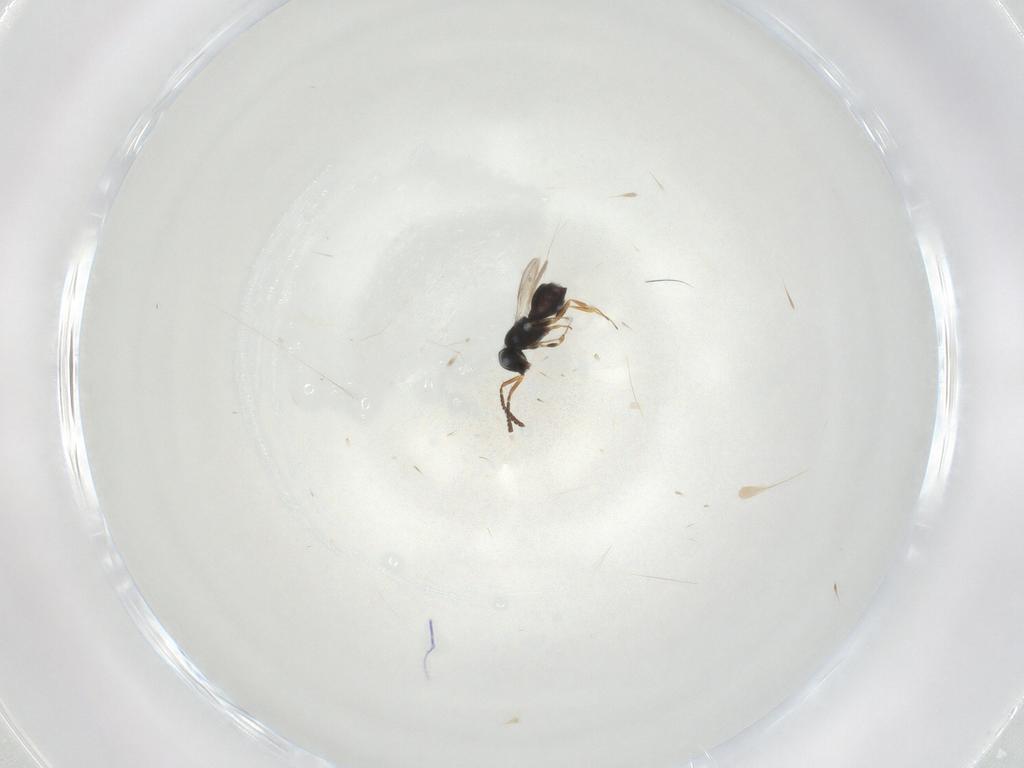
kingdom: Animalia
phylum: Arthropoda
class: Insecta
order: Hymenoptera
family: Scelionidae
